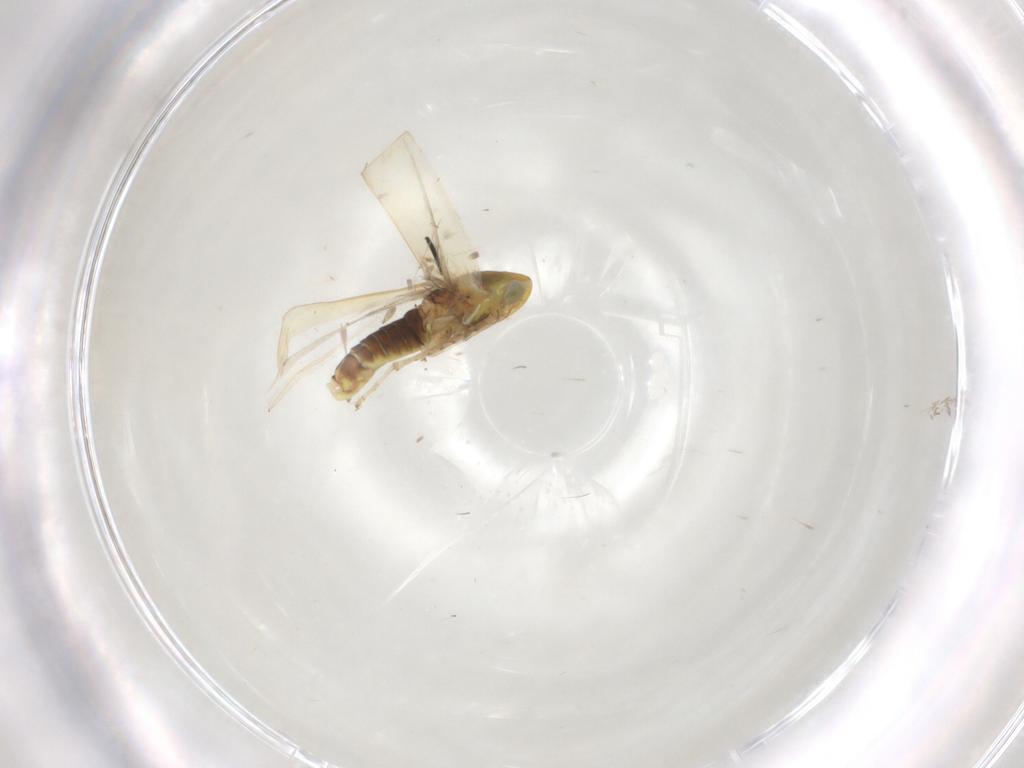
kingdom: Animalia
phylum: Arthropoda
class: Insecta
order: Hemiptera
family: Cicadellidae
